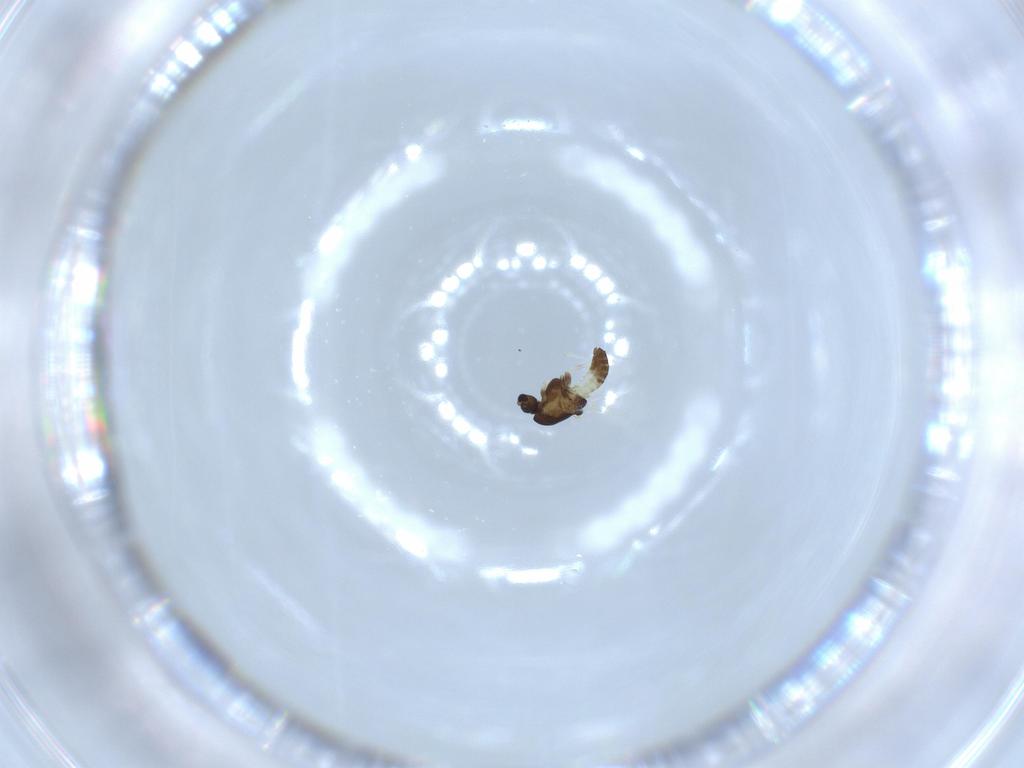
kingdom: Animalia
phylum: Arthropoda
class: Insecta
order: Diptera
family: Chironomidae
